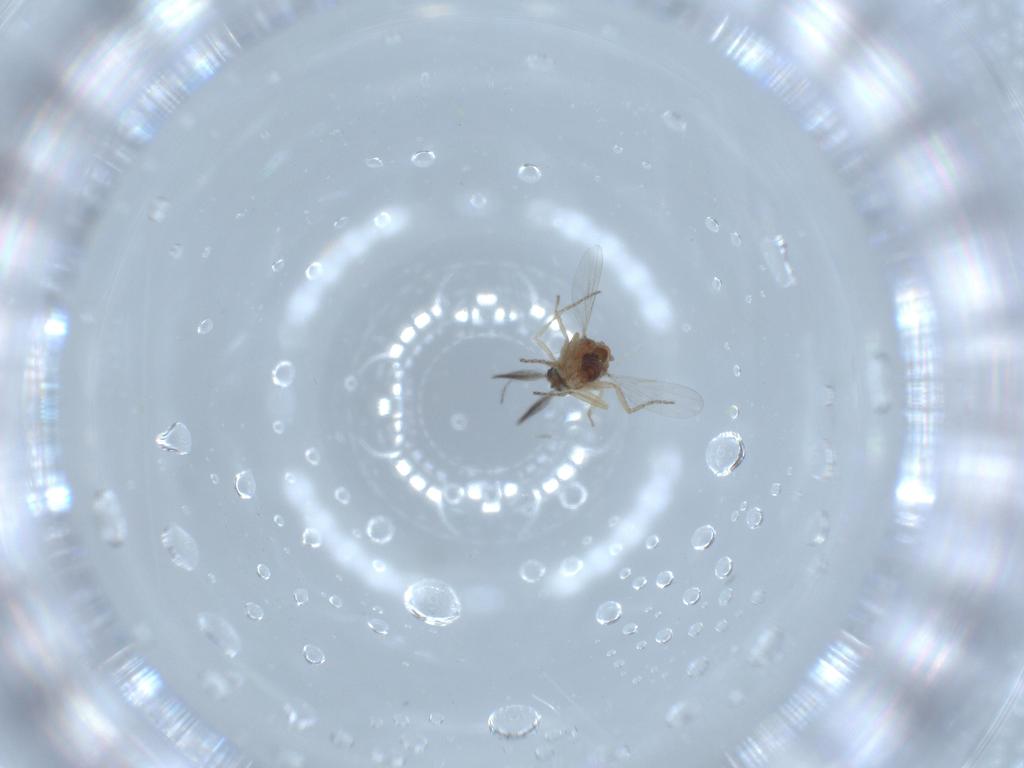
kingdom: Animalia
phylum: Arthropoda
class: Insecta
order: Diptera
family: Ceratopogonidae
